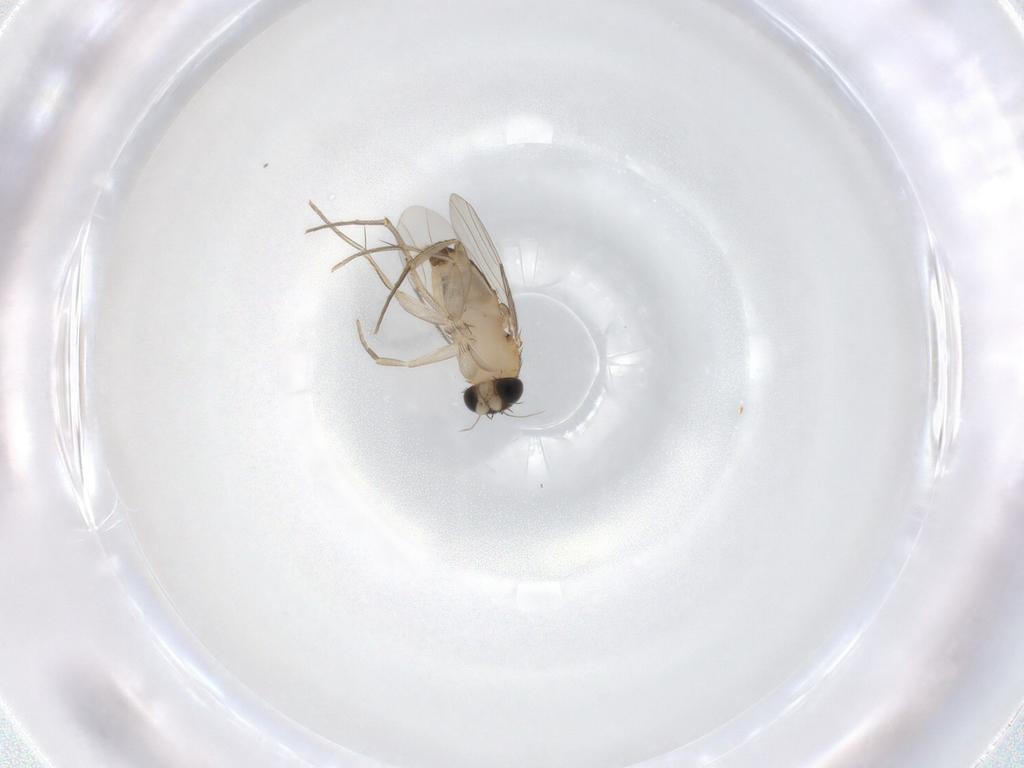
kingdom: Animalia
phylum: Arthropoda
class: Insecta
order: Diptera
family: Phoridae
